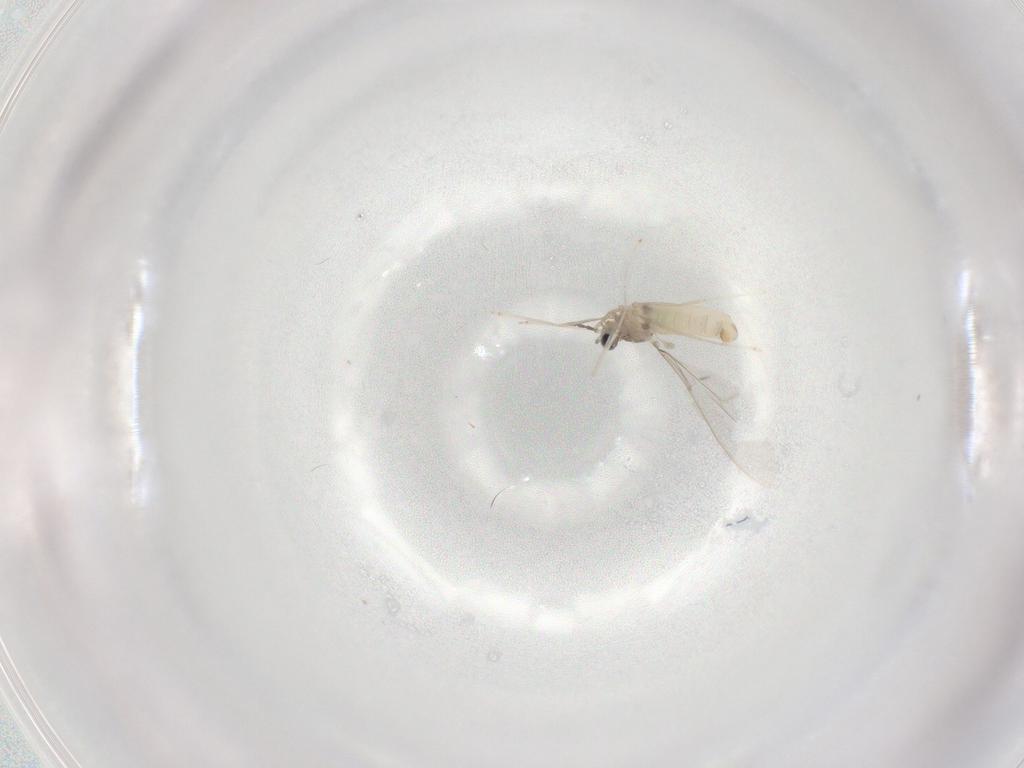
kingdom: Animalia
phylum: Arthropoda
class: Insecta
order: Diptera
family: Cecidomyiidae
